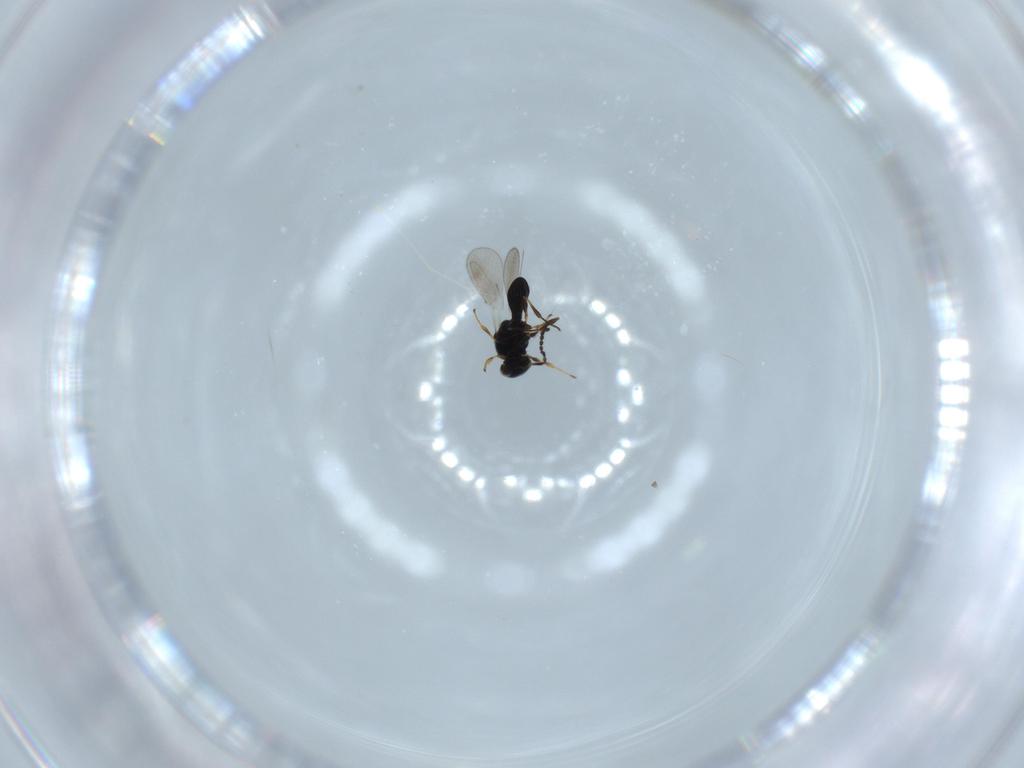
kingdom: Animalia
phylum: Arthropoda
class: Insecta
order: Hymenoptera
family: Platygastridae
